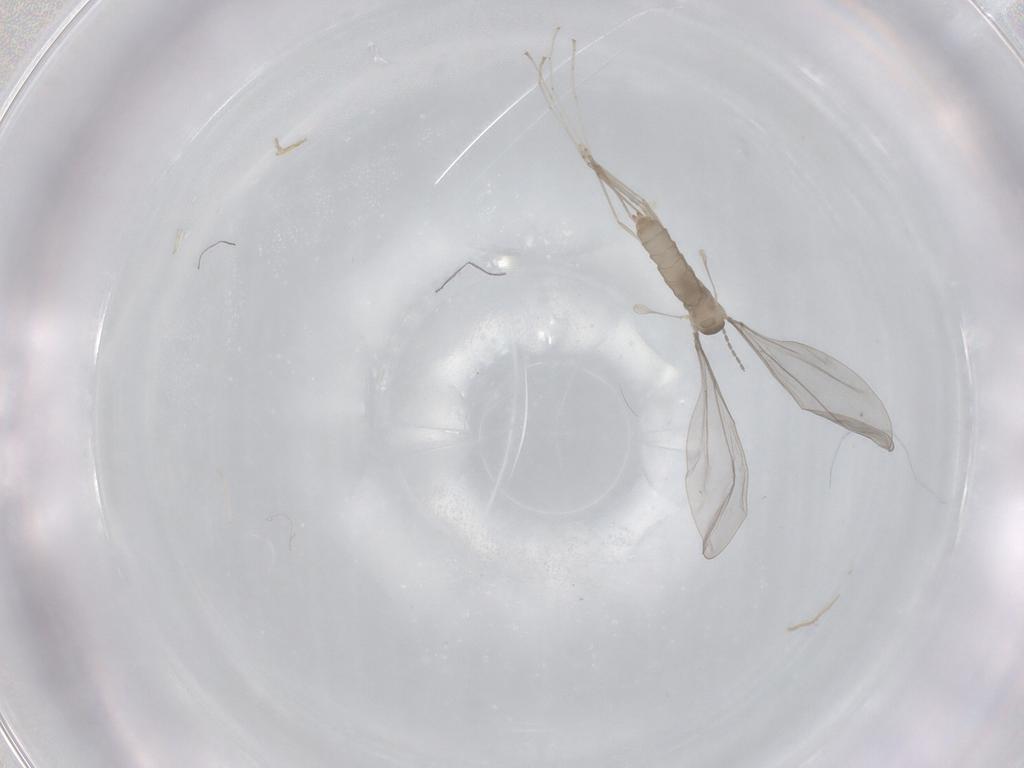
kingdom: Animalia
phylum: Arthropoda
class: Insecta
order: Diptera
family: Cecidomyiidae
